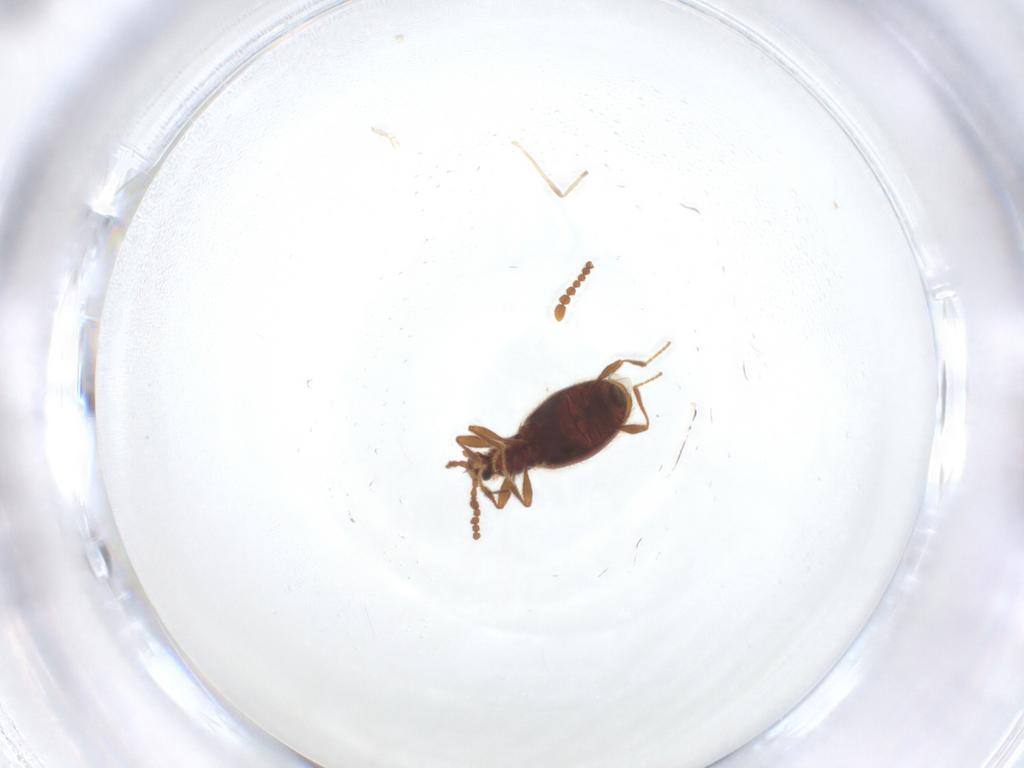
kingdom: Animalia
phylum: Arthropoda
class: Insecta
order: Coleoptera
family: Staphylinidae
